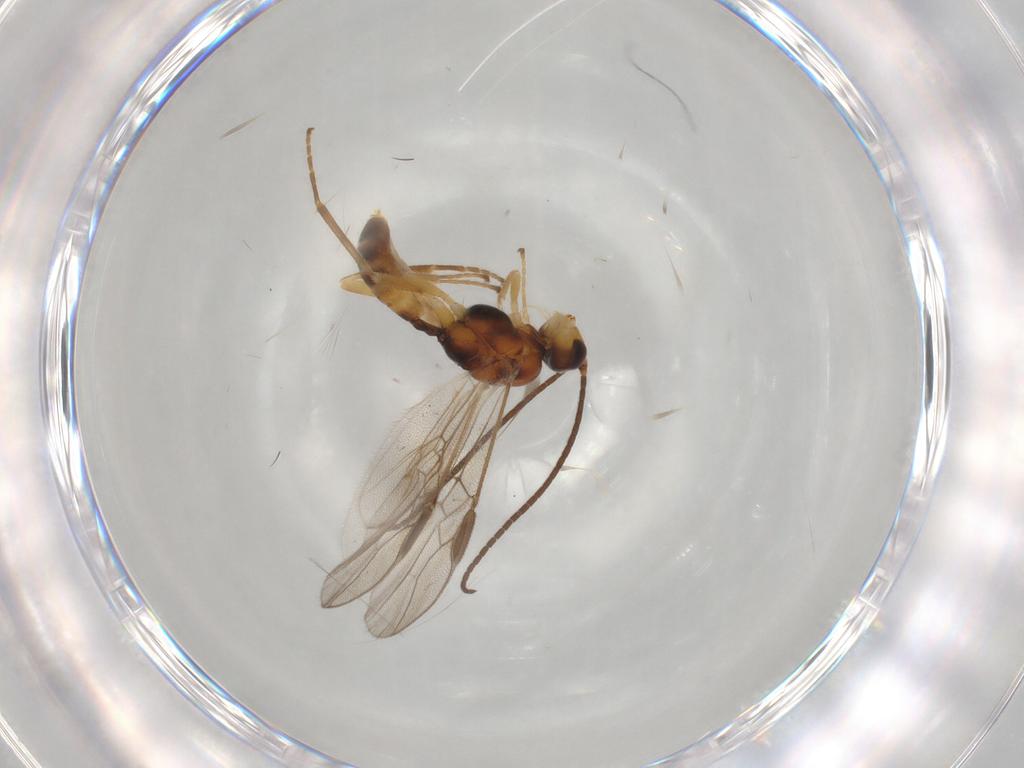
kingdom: Animalia
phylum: Arthropoda
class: Insecta
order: Hymenoptera
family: Braconidae
